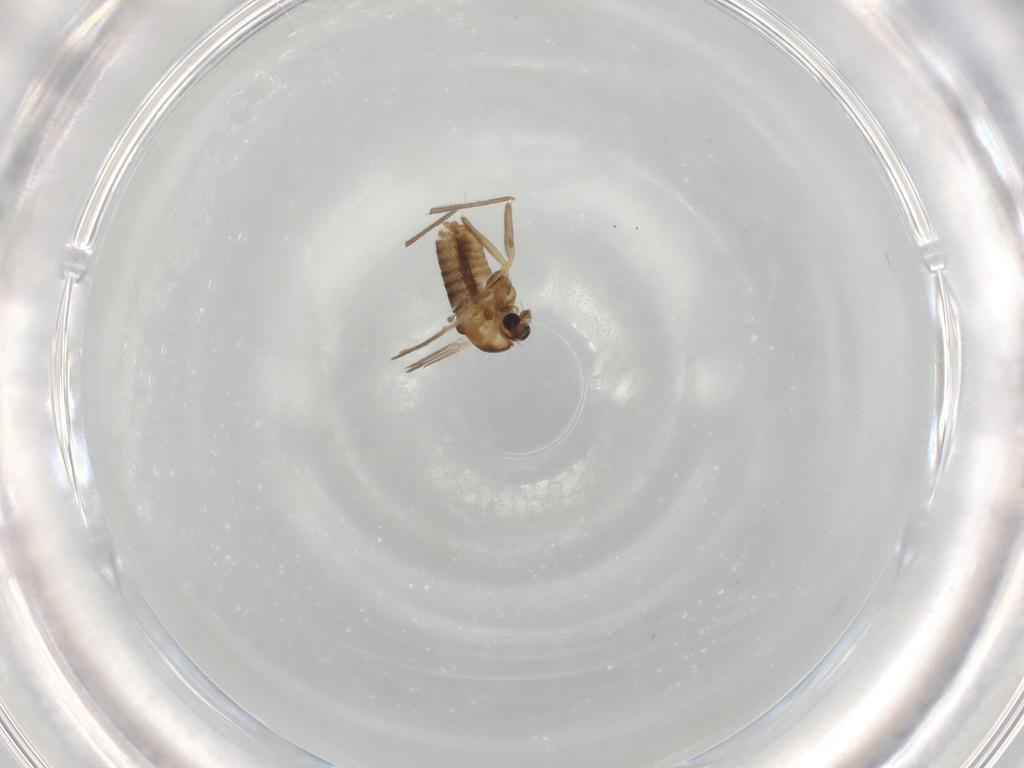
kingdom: Animalia
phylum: Arthropoda
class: Insecta
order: Diptera
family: Chironomidae
